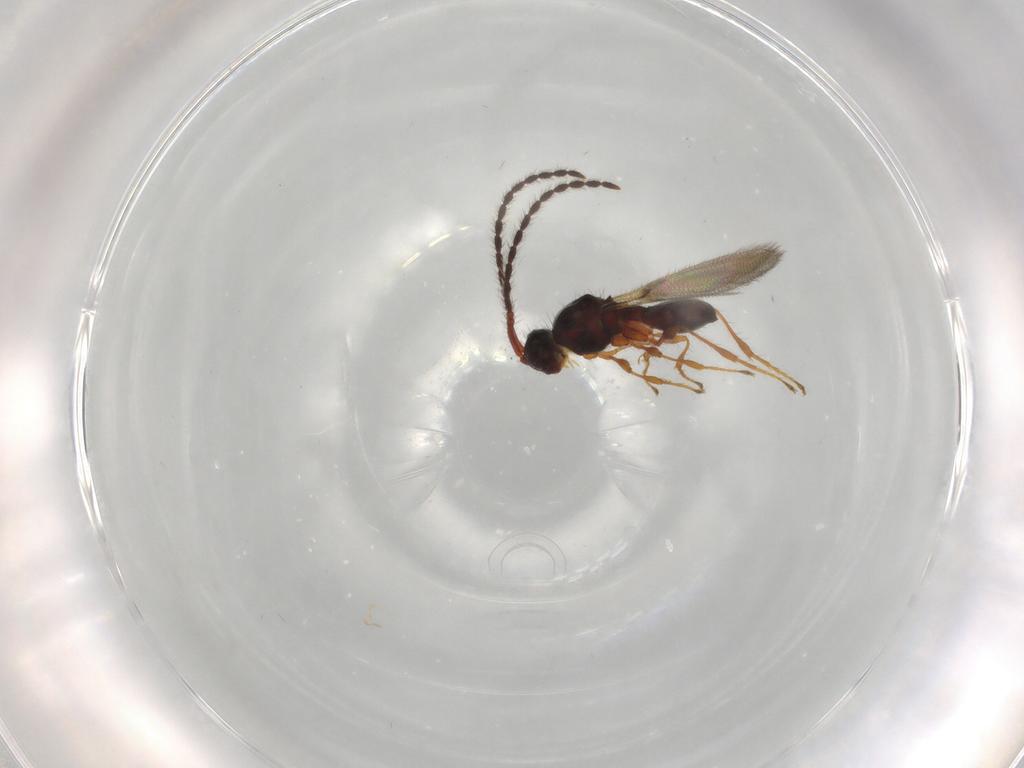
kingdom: Animalia
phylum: Arthropoda
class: Insecta
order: Hymenoptera
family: Diapriidae
